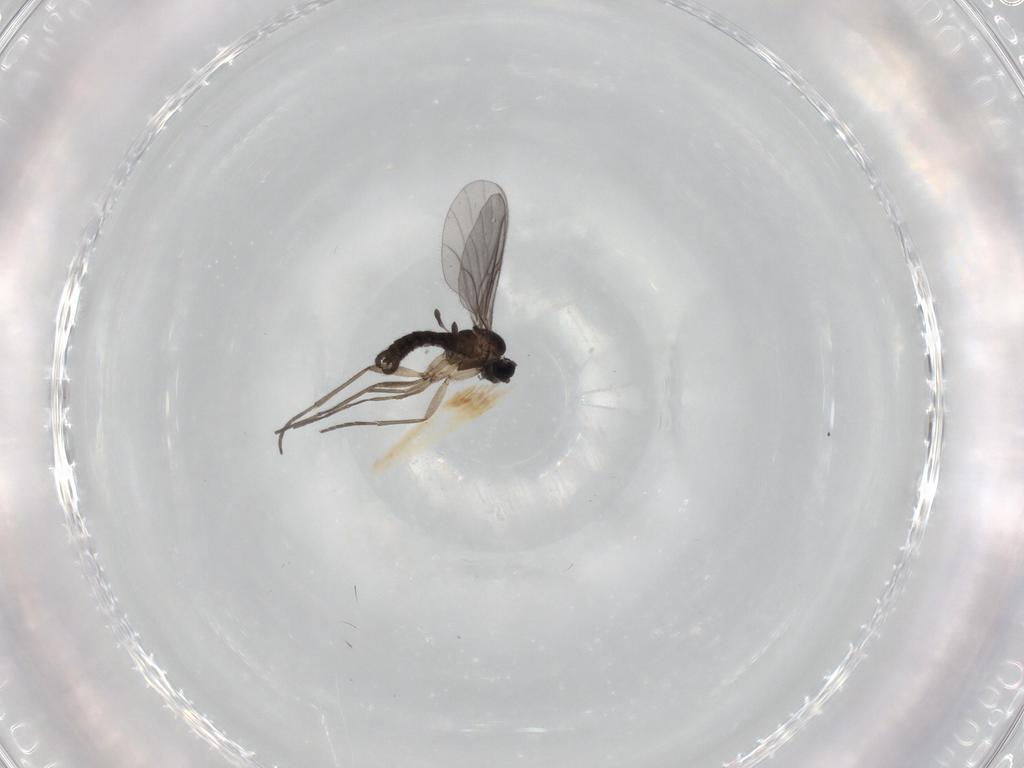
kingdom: Animalia
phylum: Arthropoda
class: Insecta
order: Diptera
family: Sciaridae
